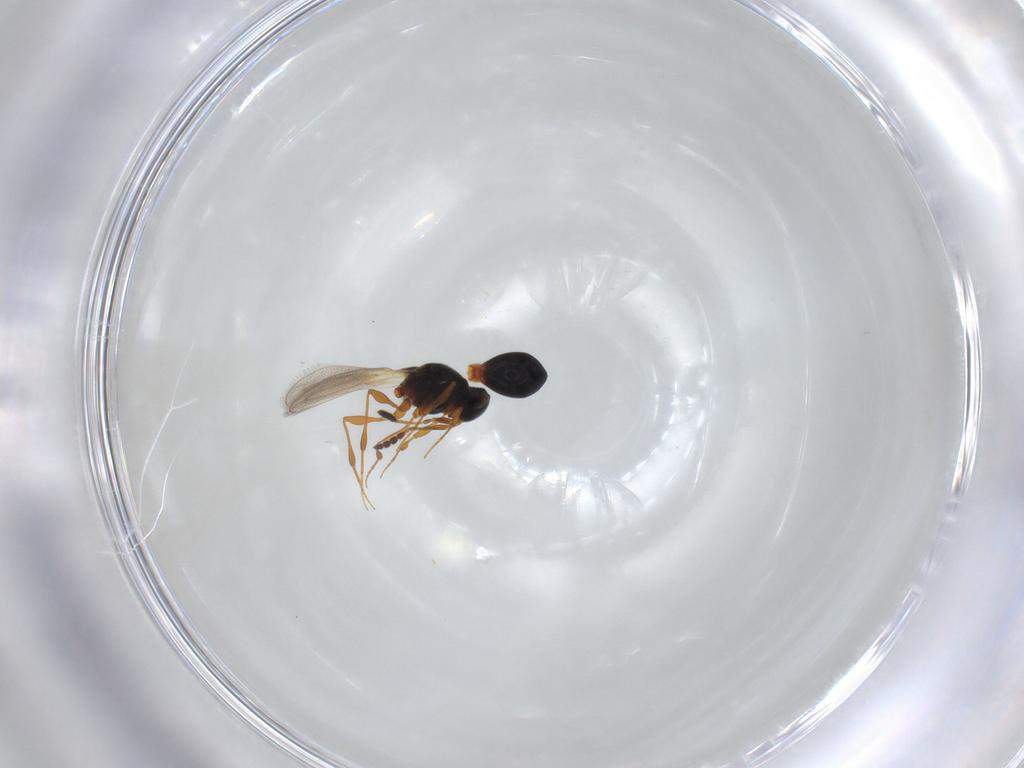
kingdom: Animalia
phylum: Arthropoda
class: Insecta
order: Hymenoptera
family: Platygastridae
